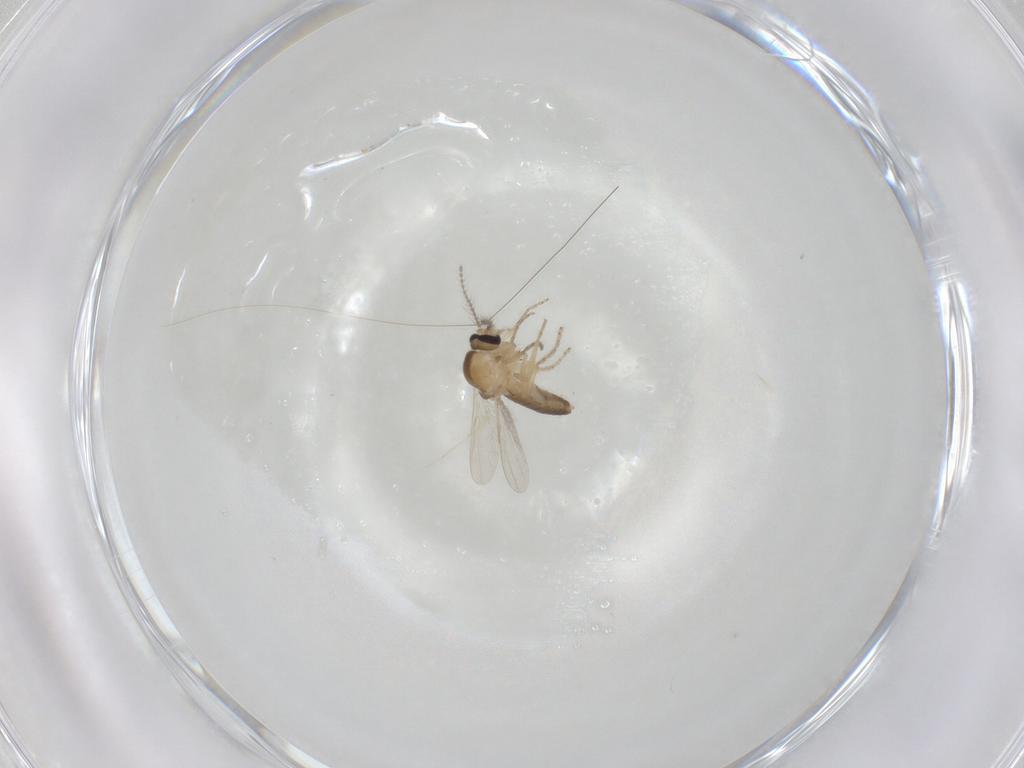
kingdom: Animalia
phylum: Arthropoda
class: Insecta
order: Diptera
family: Ceratopogonidae
